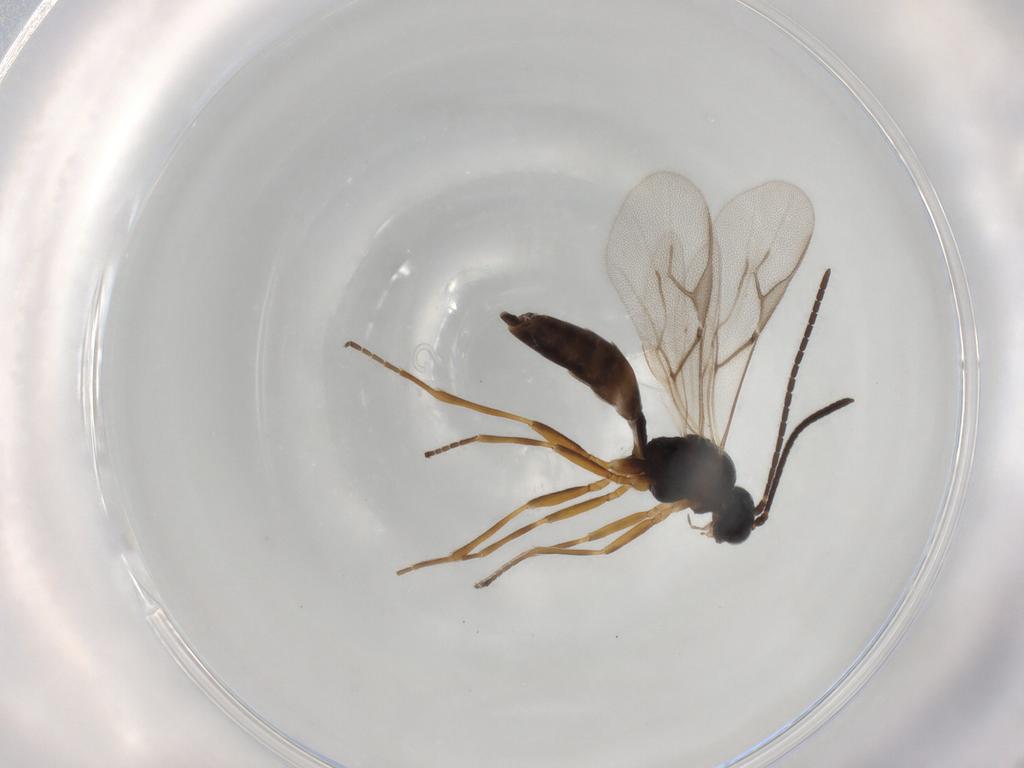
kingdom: Animalia
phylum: Arthropoda
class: Insecta
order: Hymenoptera
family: Braconidae
